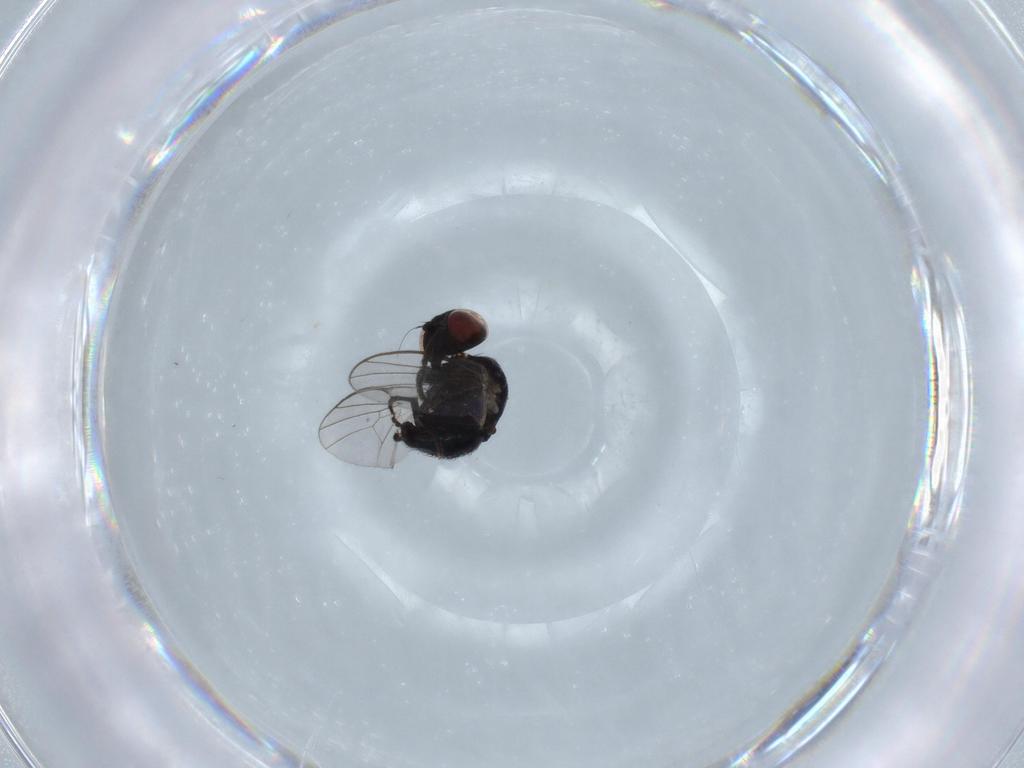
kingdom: Animalia
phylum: Arthropoda
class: Insecta
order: Diptera
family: Agromyzidae
